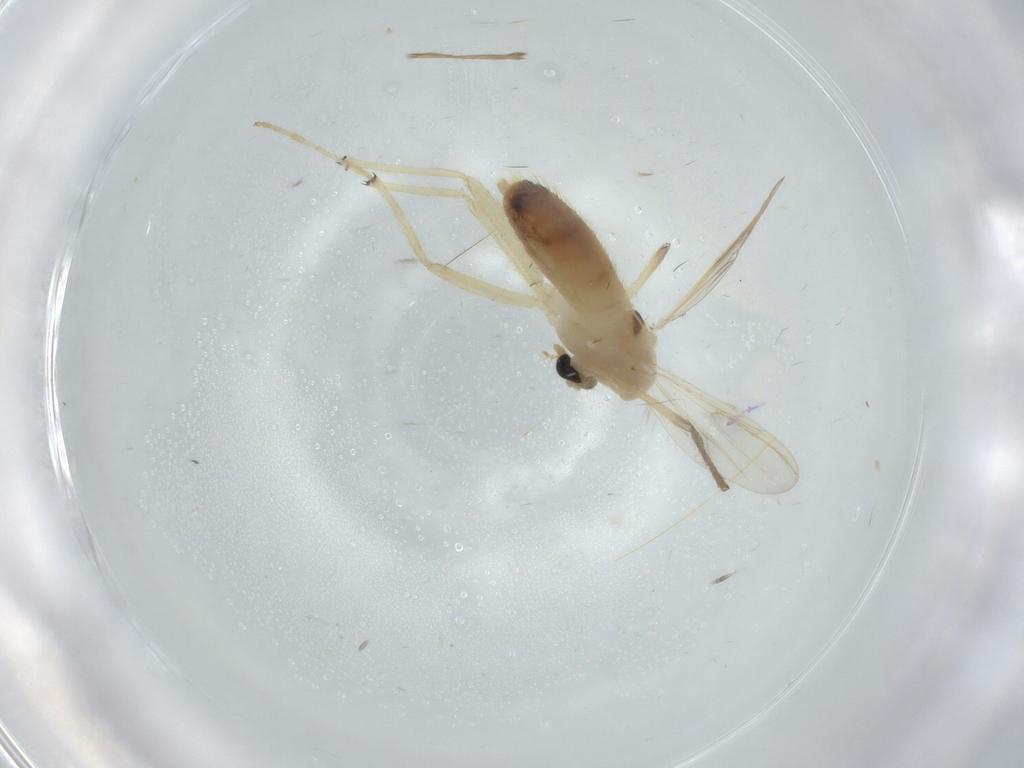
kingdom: Animalia
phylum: Arthropoda
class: Insecta
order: Diptera
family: Chironomidae
